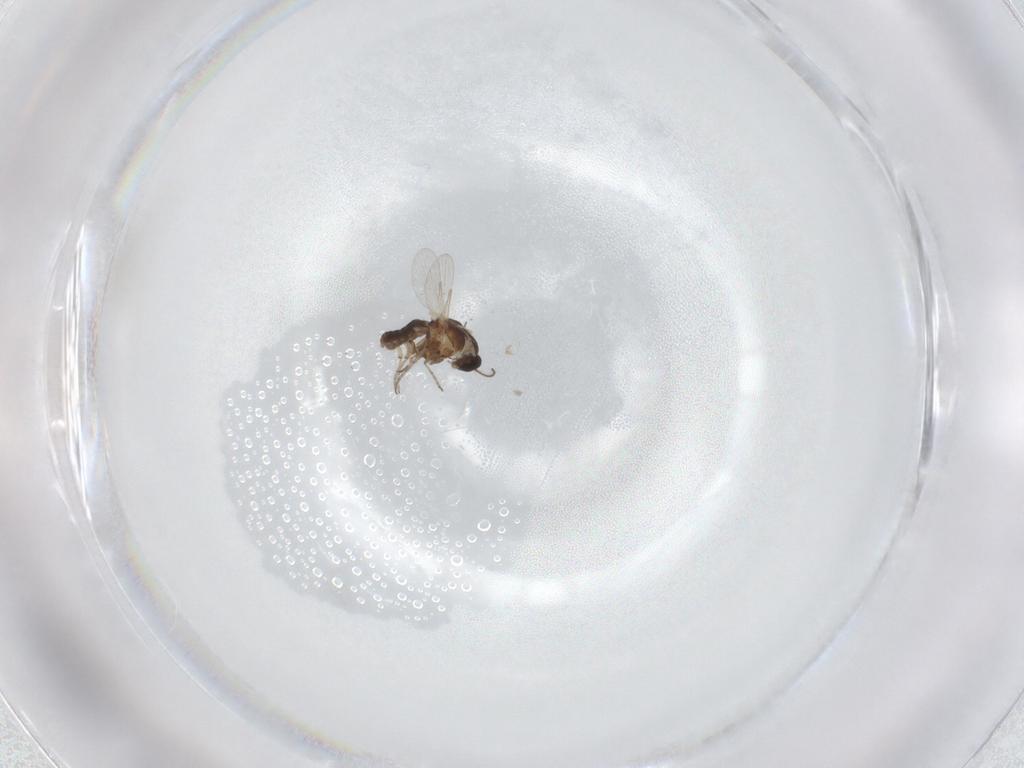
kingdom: Animalia
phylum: Arthropoda
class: Insecta
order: Diptera
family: Ceratopogonidae
